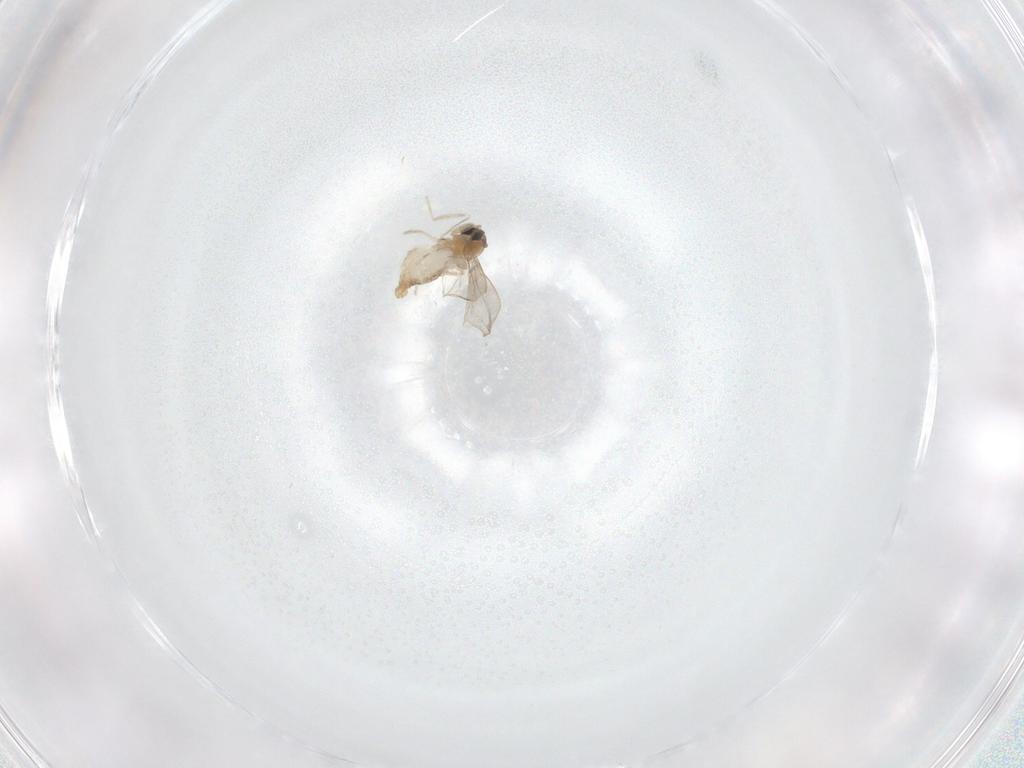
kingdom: Animalia
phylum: Arthropoda
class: Insecta
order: Diptera
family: Cecidomyiidae
